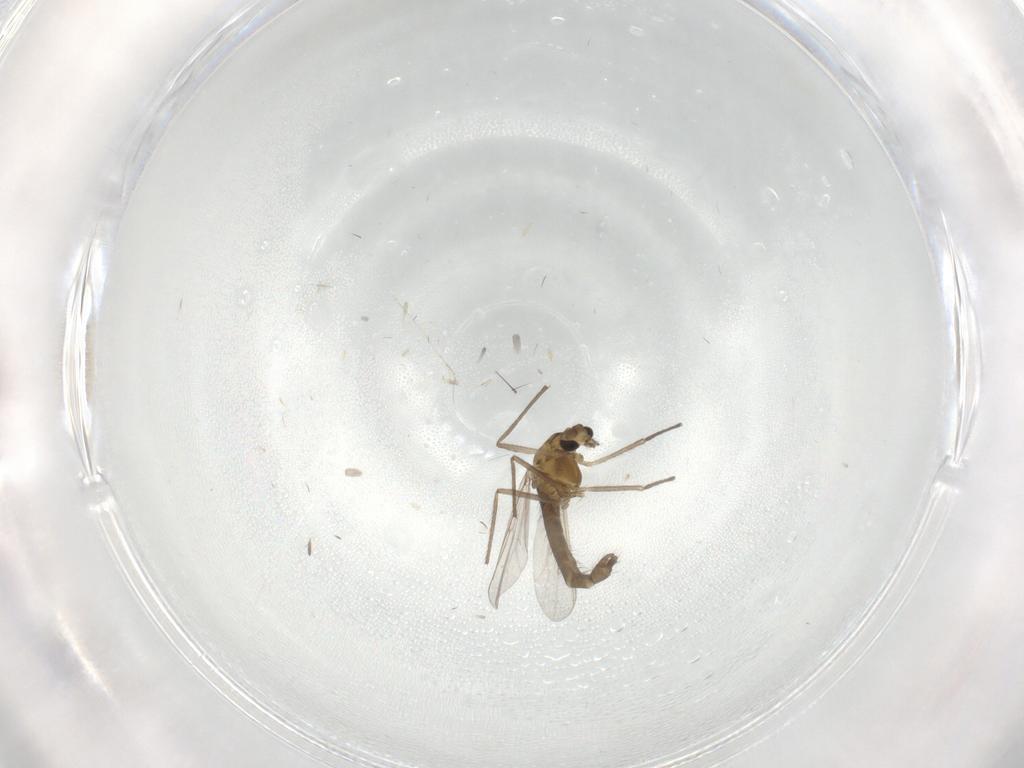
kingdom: Animalia
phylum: Arthropoda
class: Insecta
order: Diptera
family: Chironomidae
